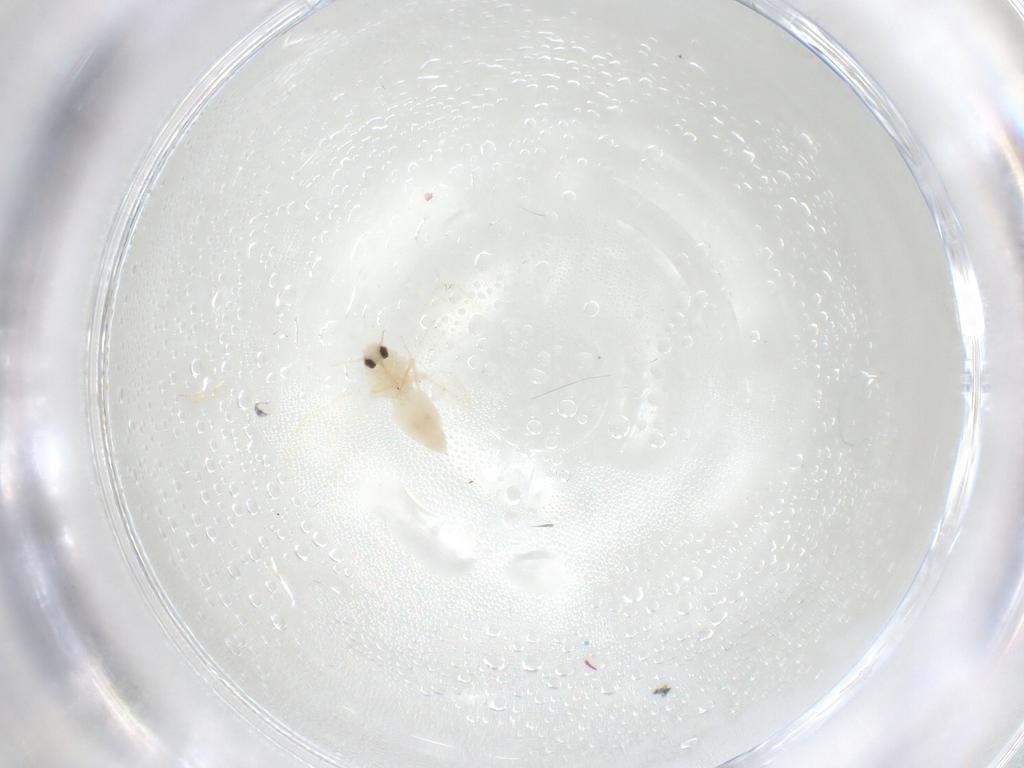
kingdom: Animalia
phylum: Arthropoda
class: Insecta
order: Hemiptera
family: Aleyrodidae
